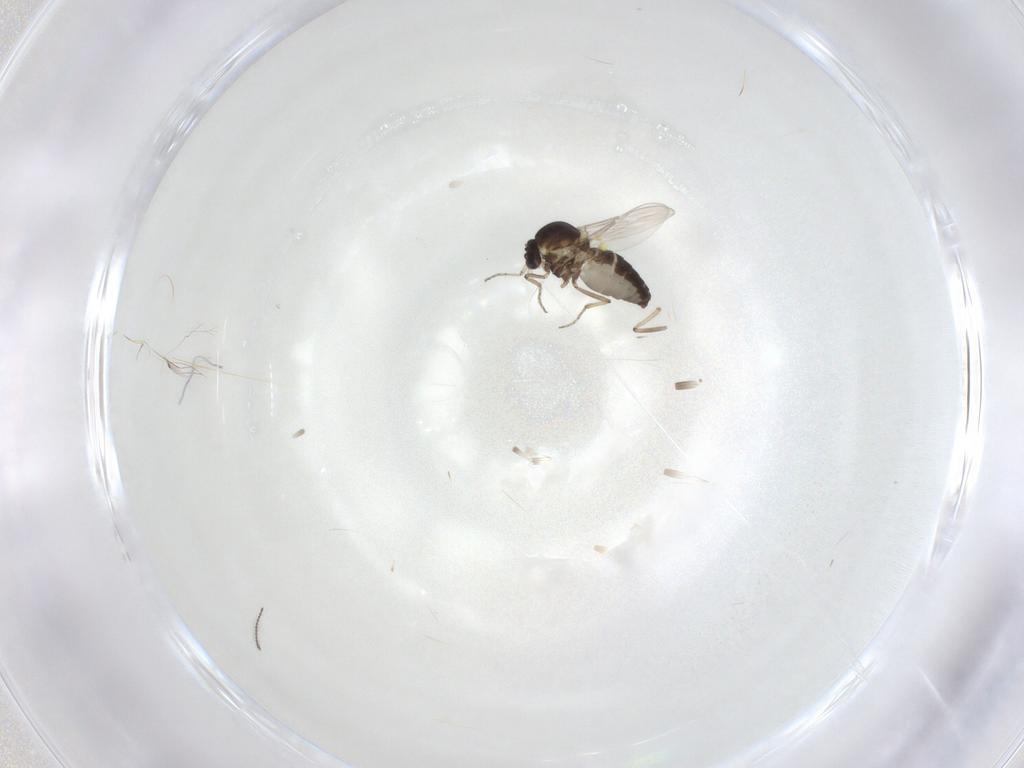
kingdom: Animalia
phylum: Arthropoda
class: Insecta
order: Diptera
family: Ceratopogonidae
